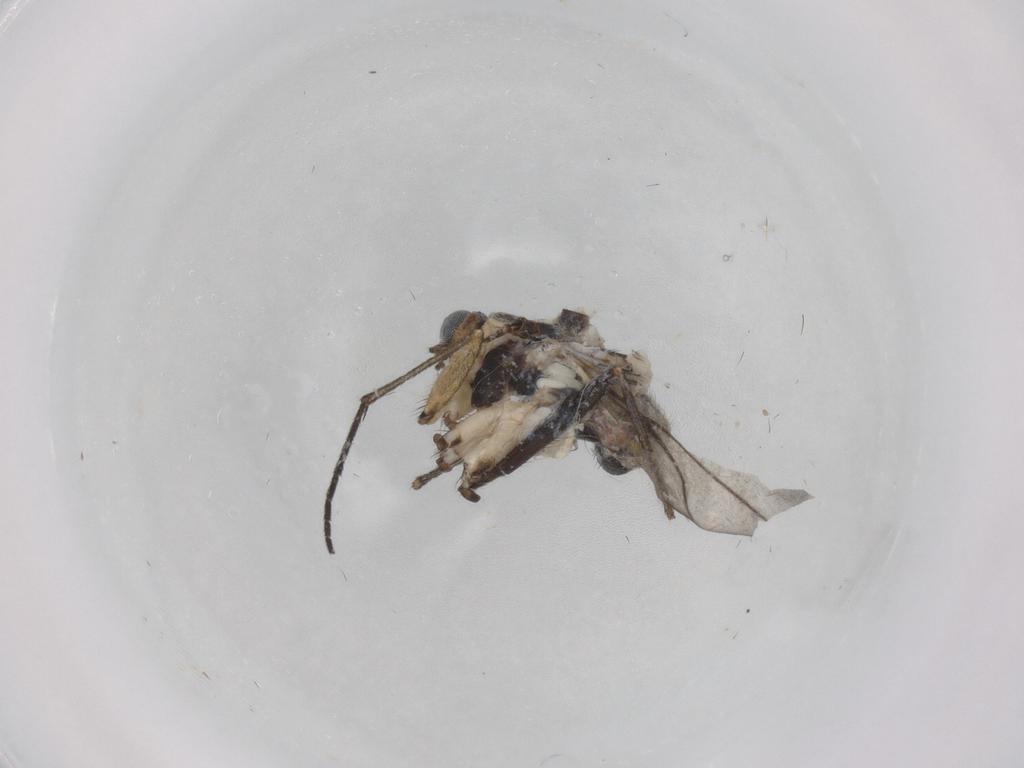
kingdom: Animalia
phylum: Arthropoda
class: Insecta
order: Diptera
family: Sciaridae
